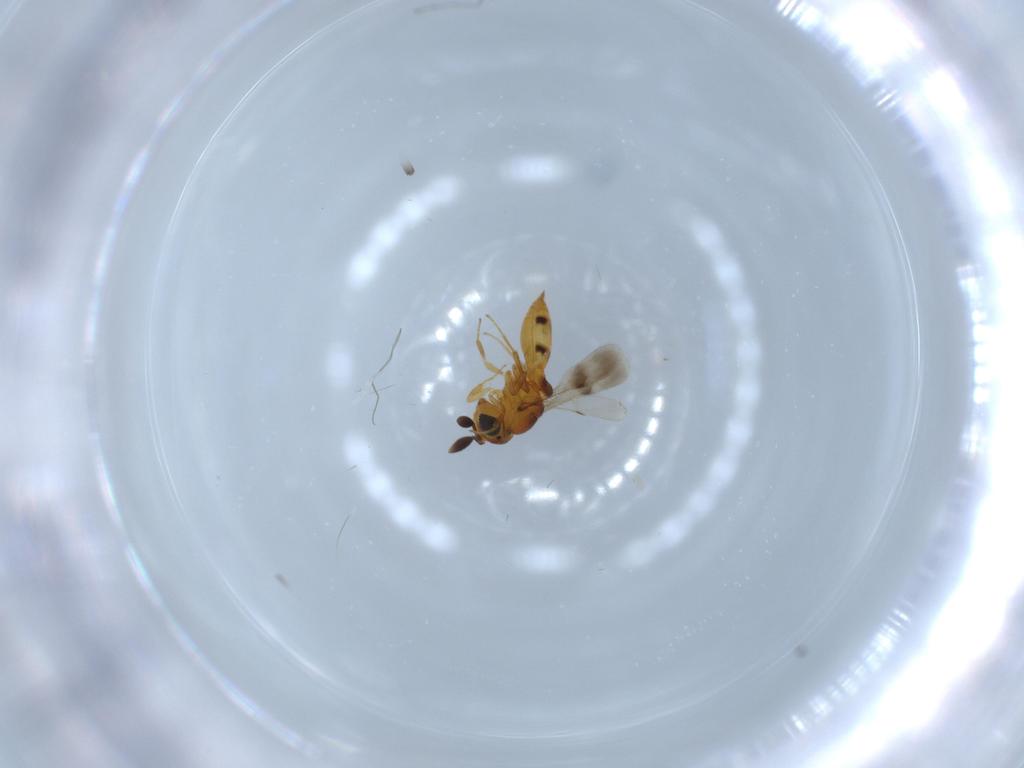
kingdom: Animalia
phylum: Arthropoda
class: Insecta
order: Hymenoptera
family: Scelionidae
